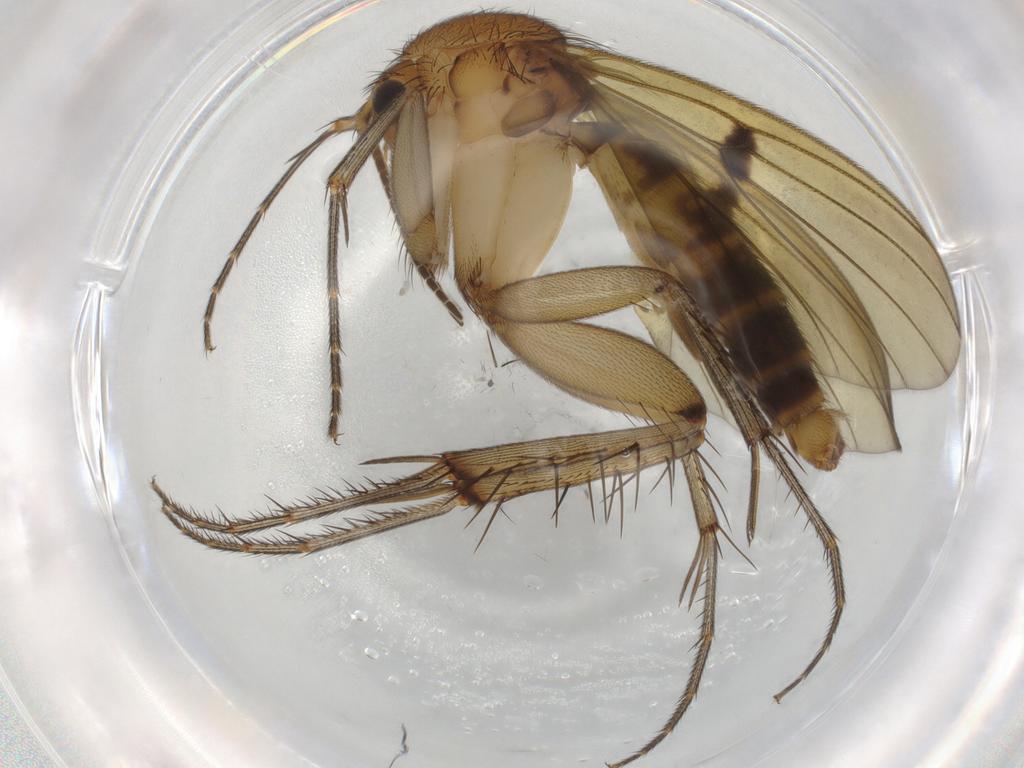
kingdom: Animalia
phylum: Arthropoda
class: Insecta
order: Diptera
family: Mycetophilidae
